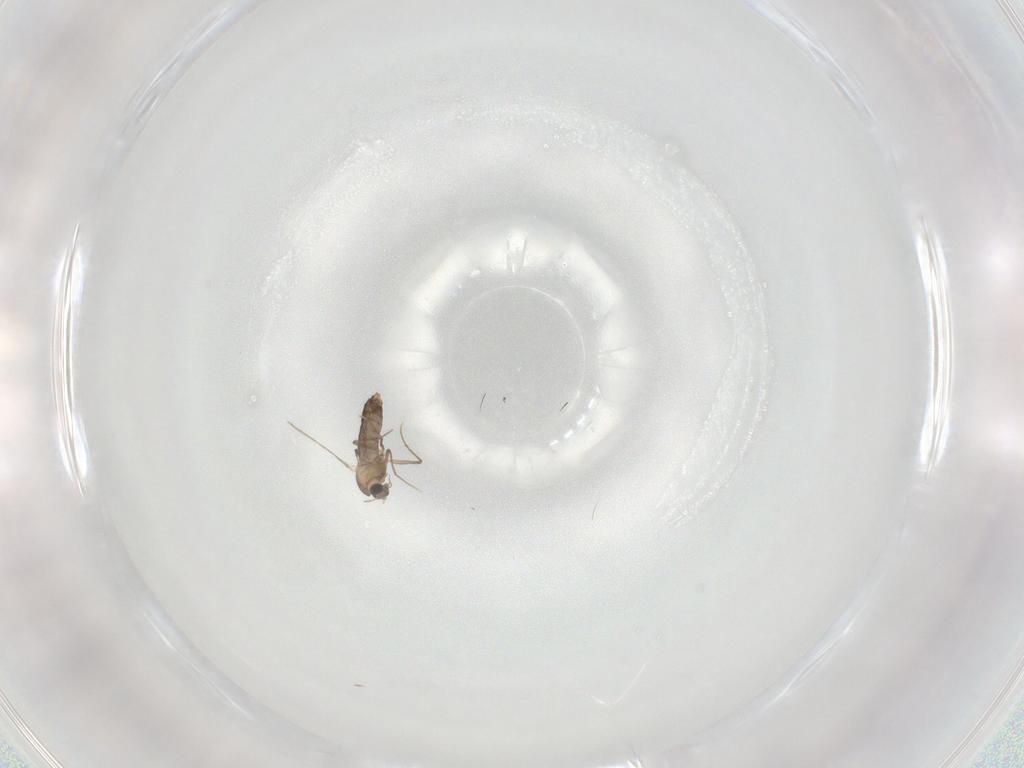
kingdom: Animalia
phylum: Arthropoda
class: Insecta
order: Diptera
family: Chironomidae
